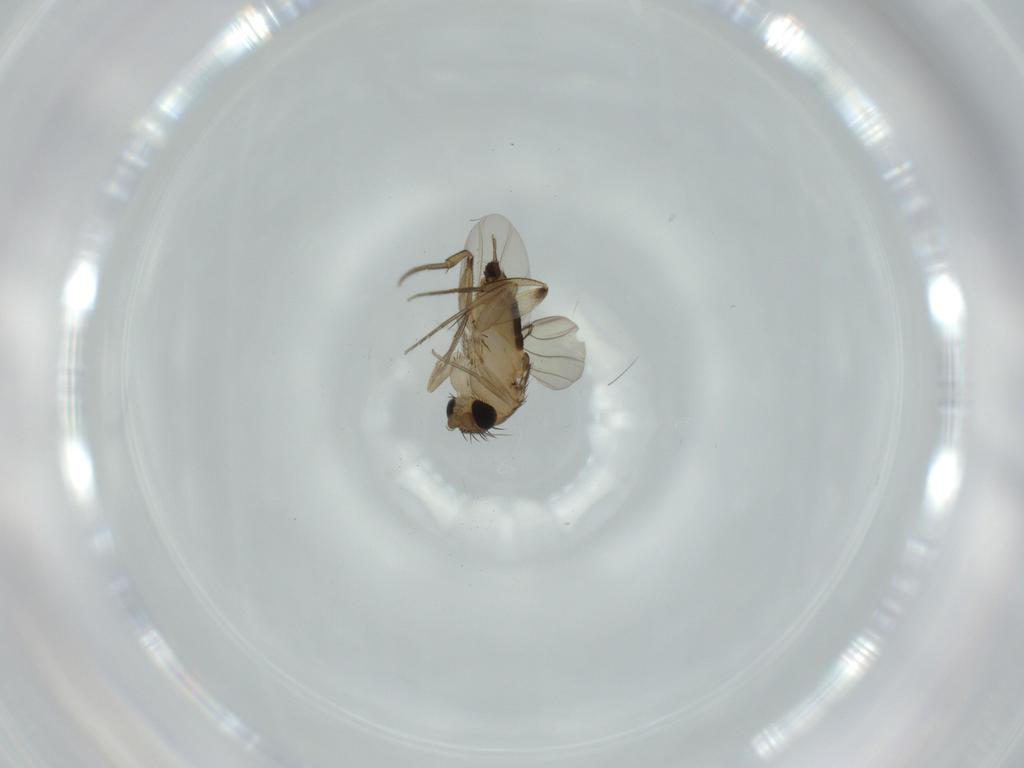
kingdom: Animalia
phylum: Arthropoda
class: Insecta
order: Diptera
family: Phoridae
